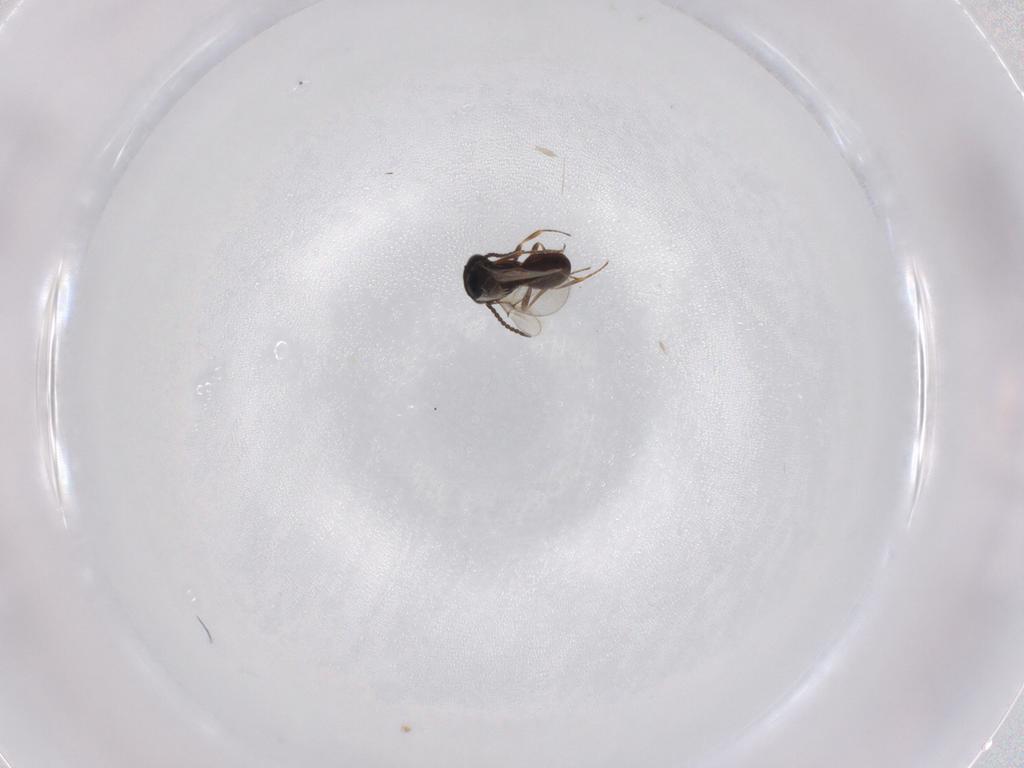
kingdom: Animalia
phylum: Arthropoda
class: Insecta
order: Hymenoptera
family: Scelionidae
